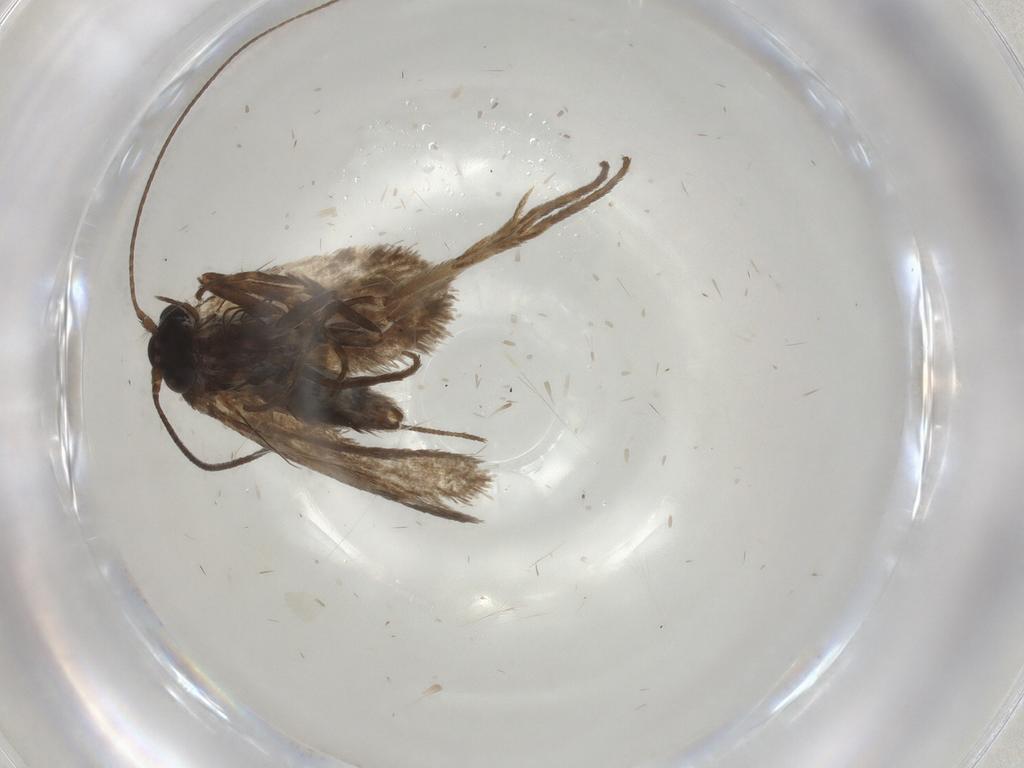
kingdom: Animalia
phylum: Arthropoda
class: Insecta
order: Lepidoptera
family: Adelidae
